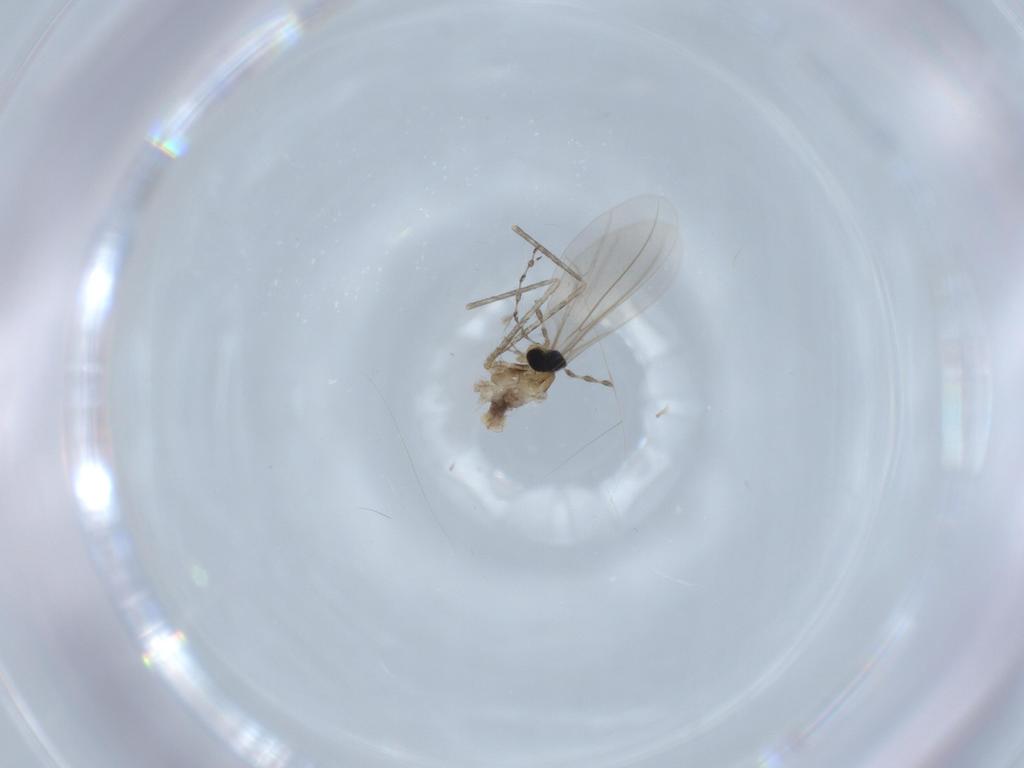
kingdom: Animalia
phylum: Arthropoda
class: Insecta
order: Diptera
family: Cecidomyiidae
